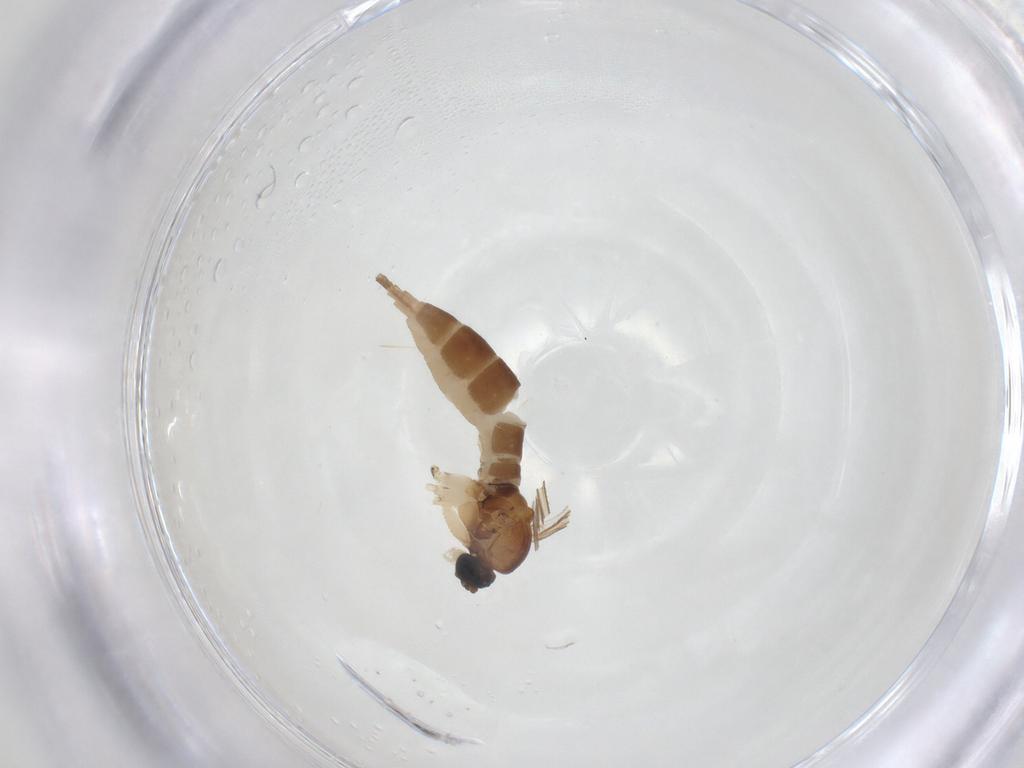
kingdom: Animalia
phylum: Arthropoda
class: Insecta
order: Diptera
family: Sciaridae
